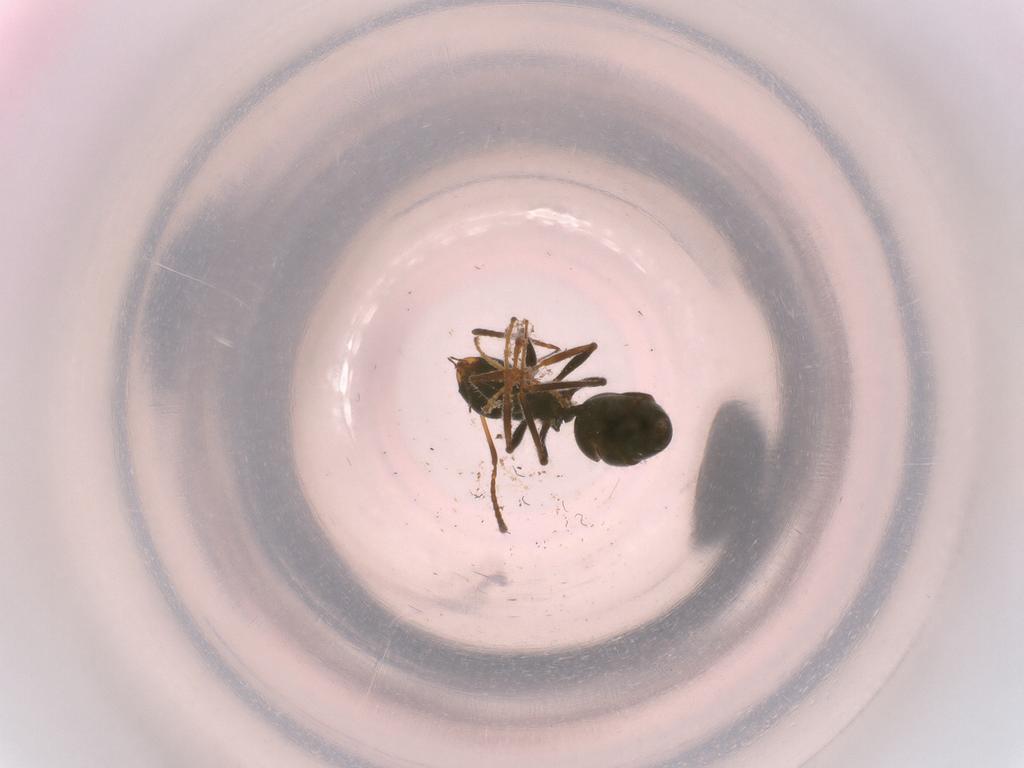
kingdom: Animalia
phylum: Arthropoda
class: Insecta
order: Hymenoptera
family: Formicidae
